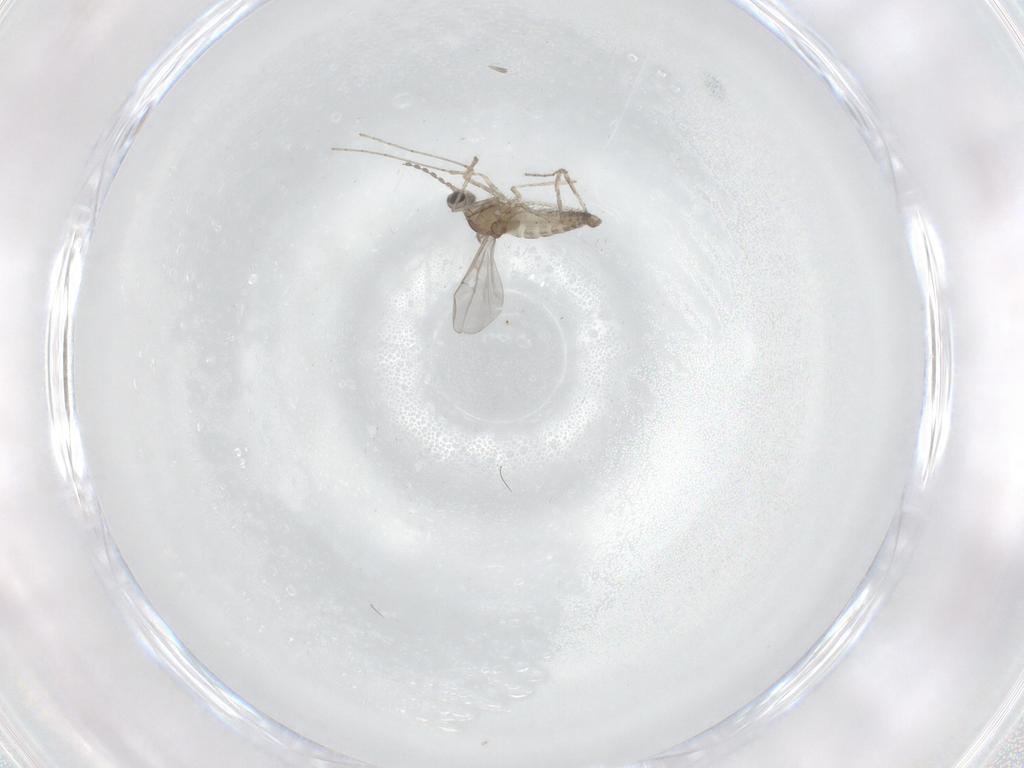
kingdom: Animalia
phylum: Arthropoda
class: Insecta
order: Diptera
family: Cecidomyiidae
